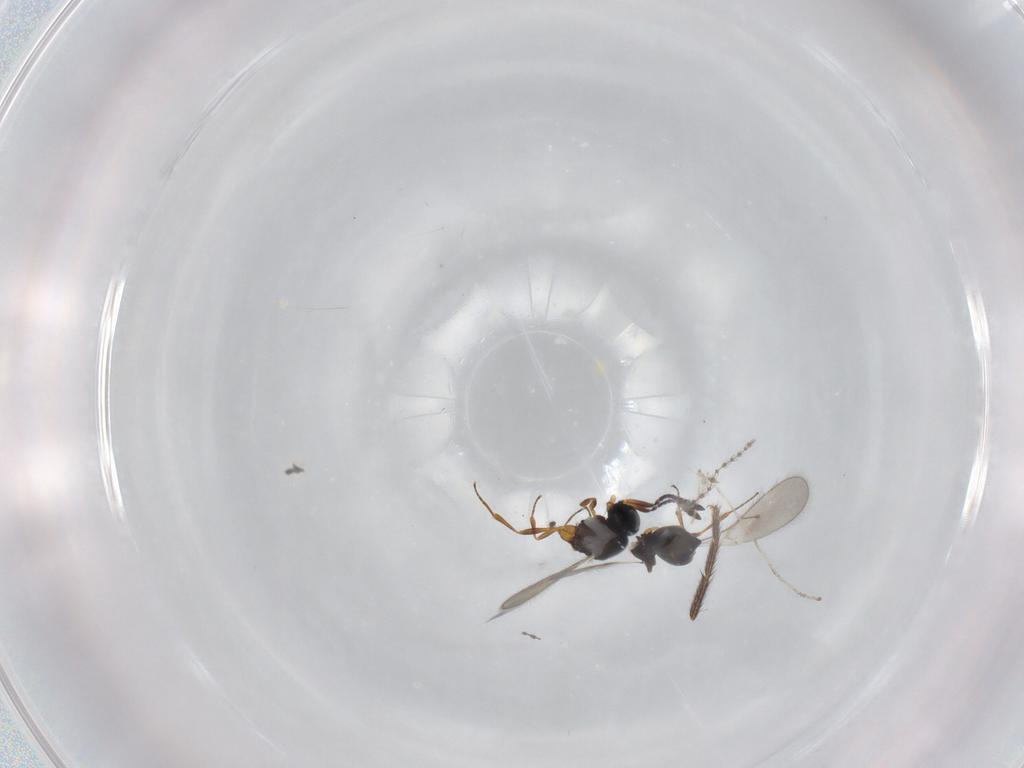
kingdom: Animalia
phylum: Arthropoda
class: Insecta
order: Hymenoptera
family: Scelionidae
